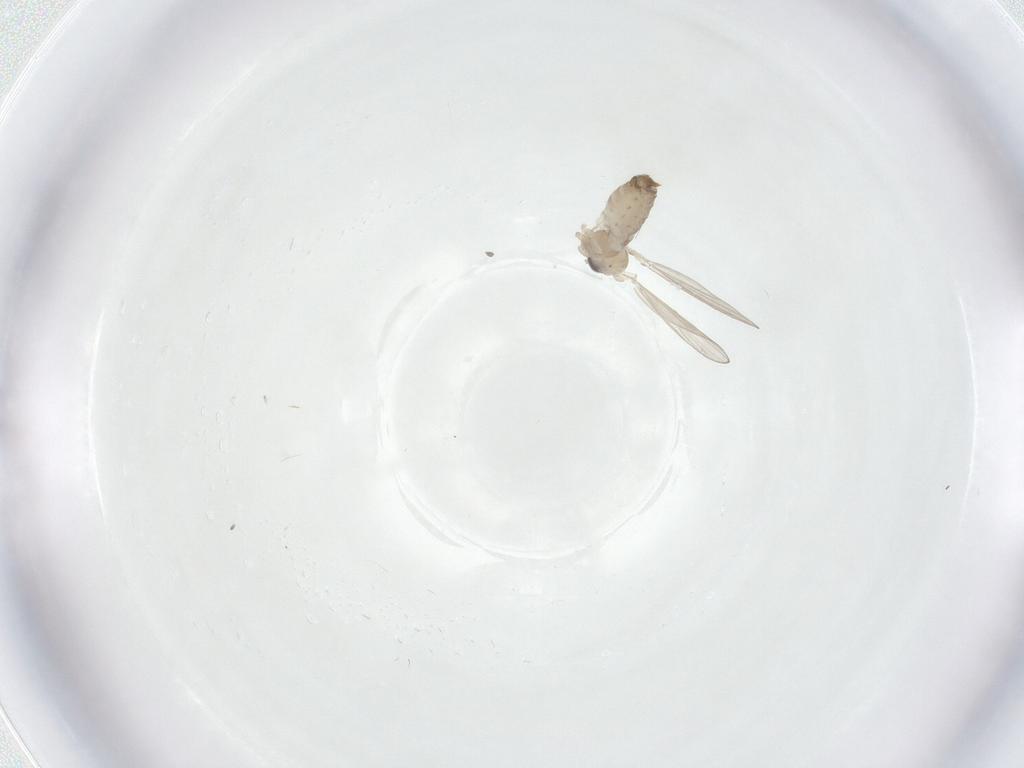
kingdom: Animalia
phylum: Arthropoda
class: Insecta
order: Diptera
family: Psychodidae
